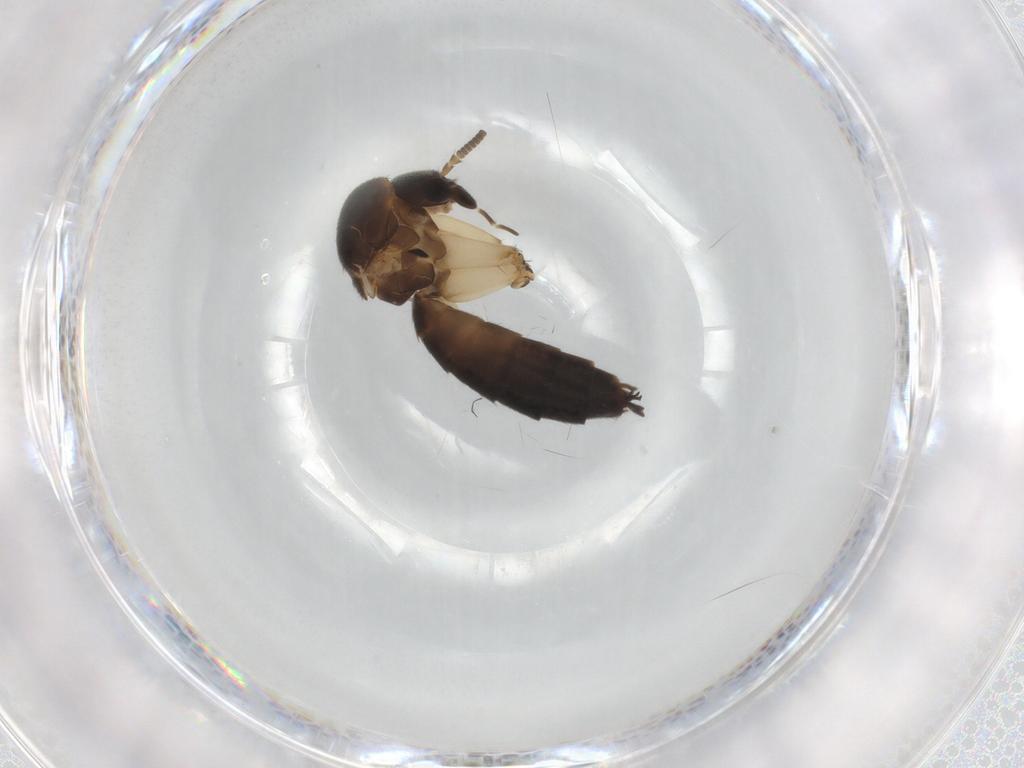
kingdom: Animalia
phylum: Arthropoda
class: Insecta
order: Diptera
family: Mycetophilidae
